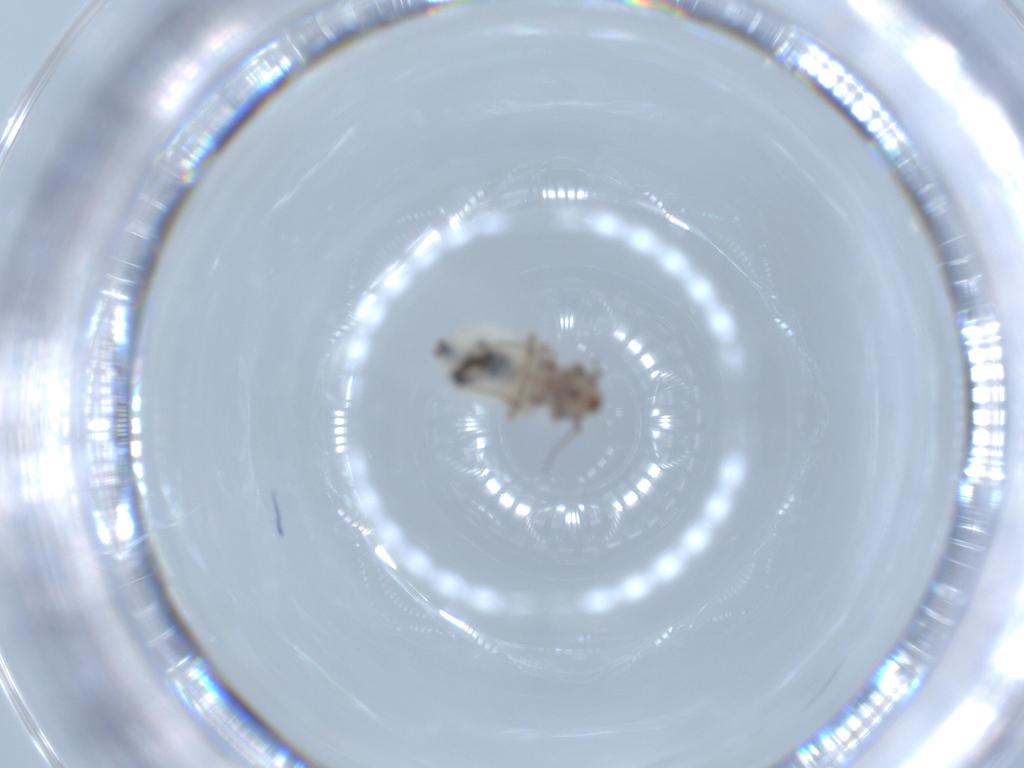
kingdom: Animalia
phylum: Arthropoda
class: Insecta
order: Psocodea
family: Lepidopsocidae
